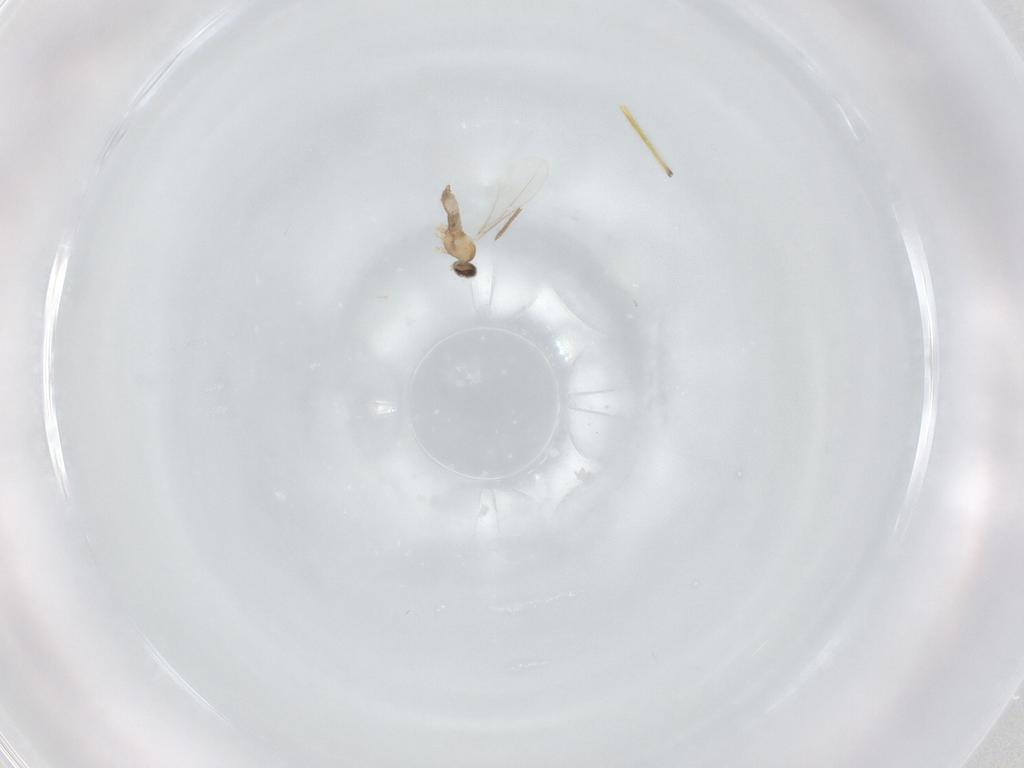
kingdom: Animalia
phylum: Arthropoda
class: Insecta
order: Diptera
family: Cecidomyiidae
